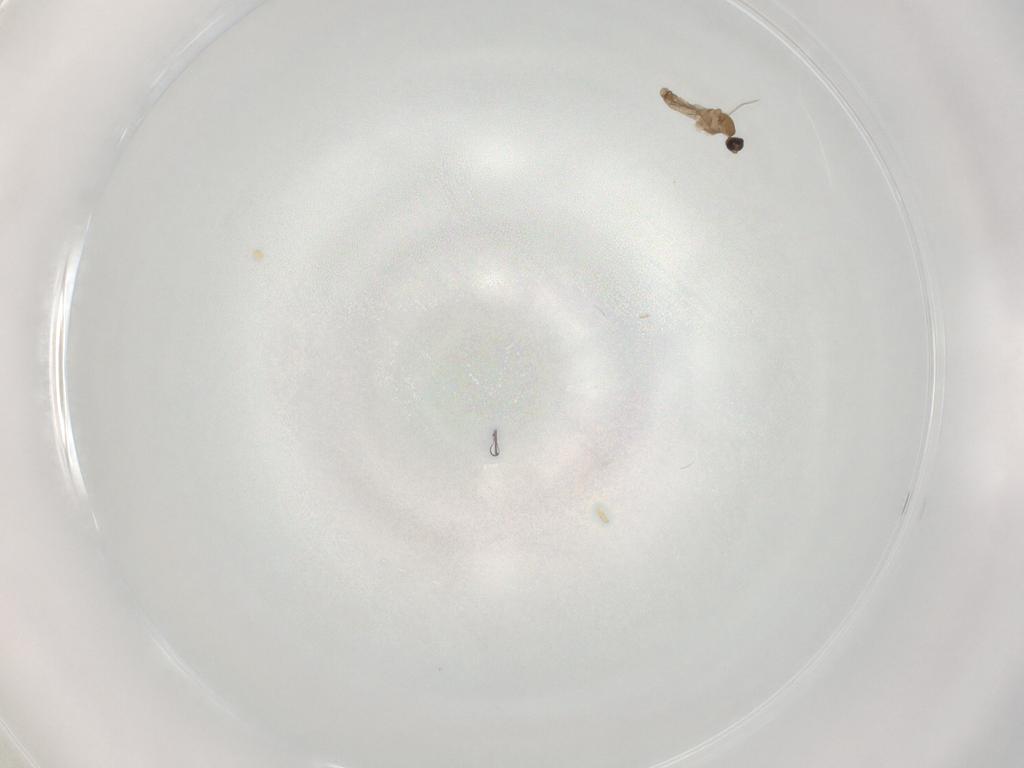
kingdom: Animalia
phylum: Arthropoda
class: Insecta
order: Diptera
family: Cecidomyiidae
